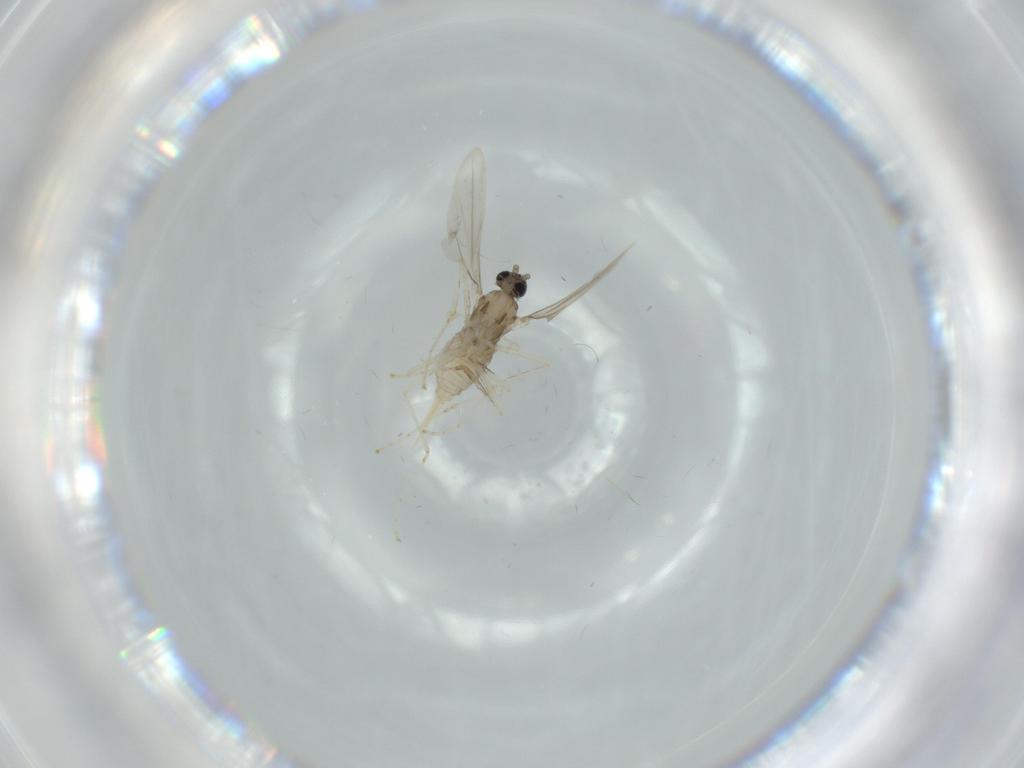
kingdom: Animalia
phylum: Arthropoda
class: Insecta
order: Diptera
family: Cecidomyiidae
